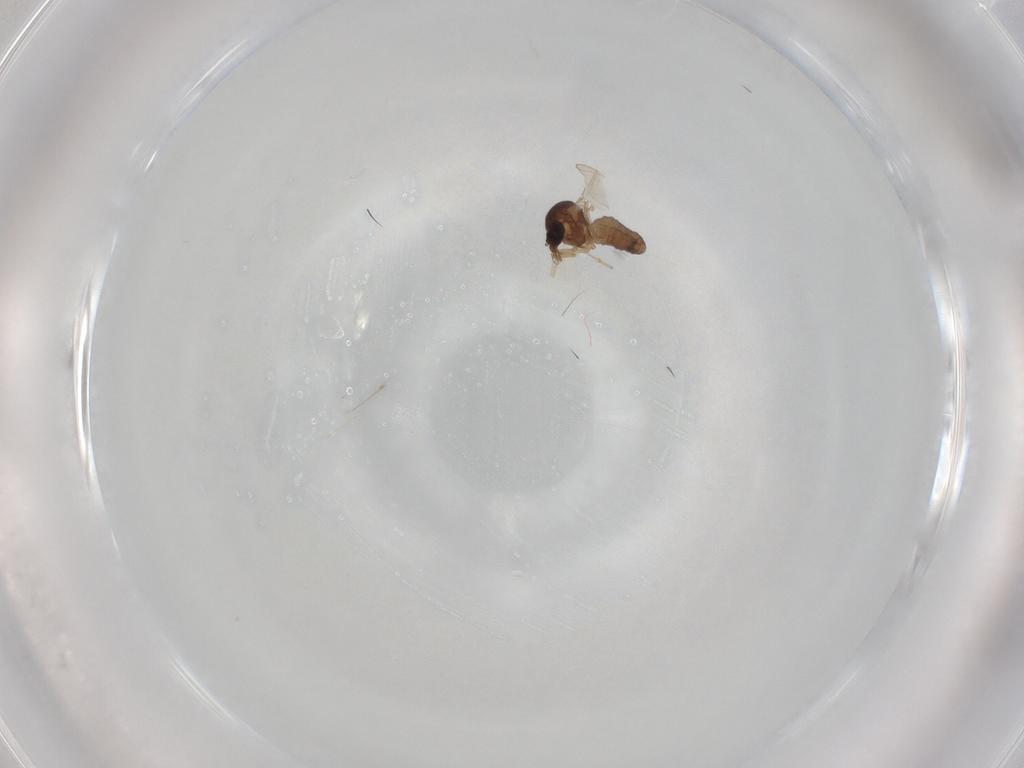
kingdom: Animalia
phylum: Arthropoda
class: Insecta
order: Diptera
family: Ceratopogonidae
